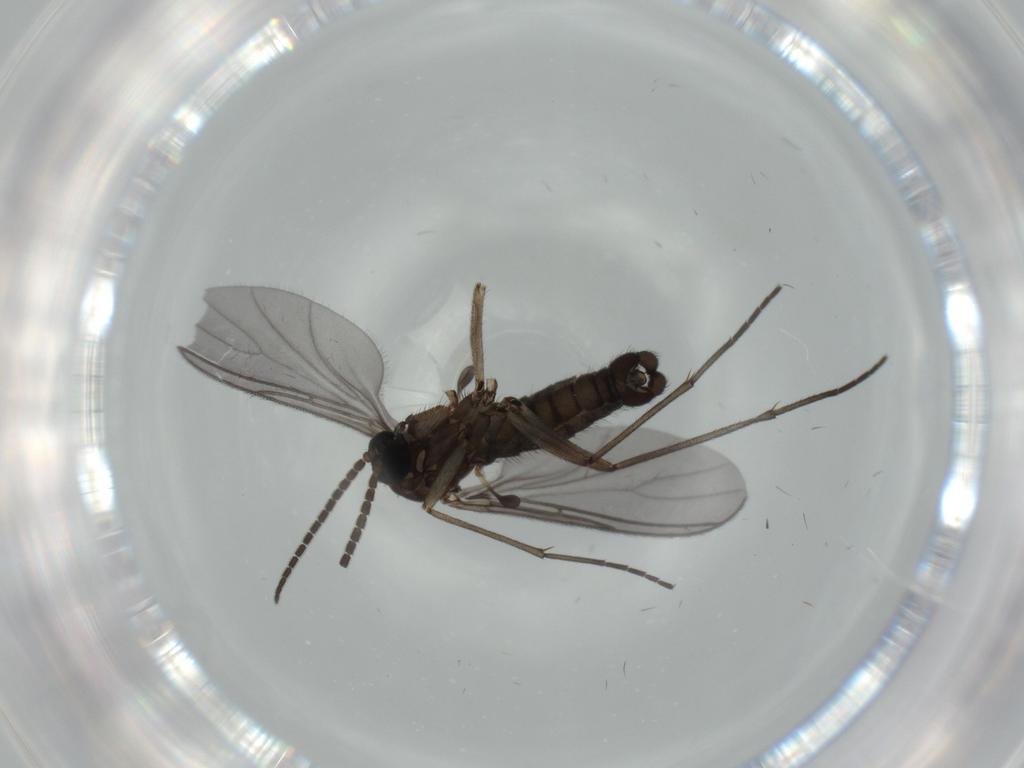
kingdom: Animalia
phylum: Arthropoda
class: Insecta
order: Diptera
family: Sciaridae
